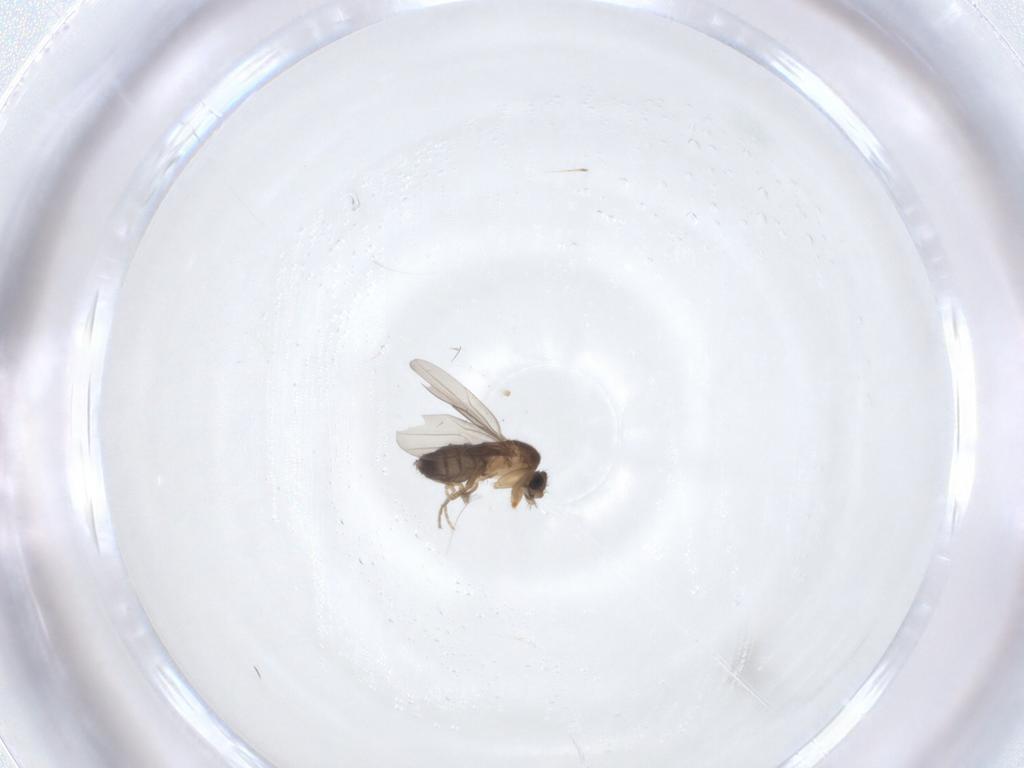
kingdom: Animalia
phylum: Arthropoda
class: Insecta
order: Diptera
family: Phoridae
